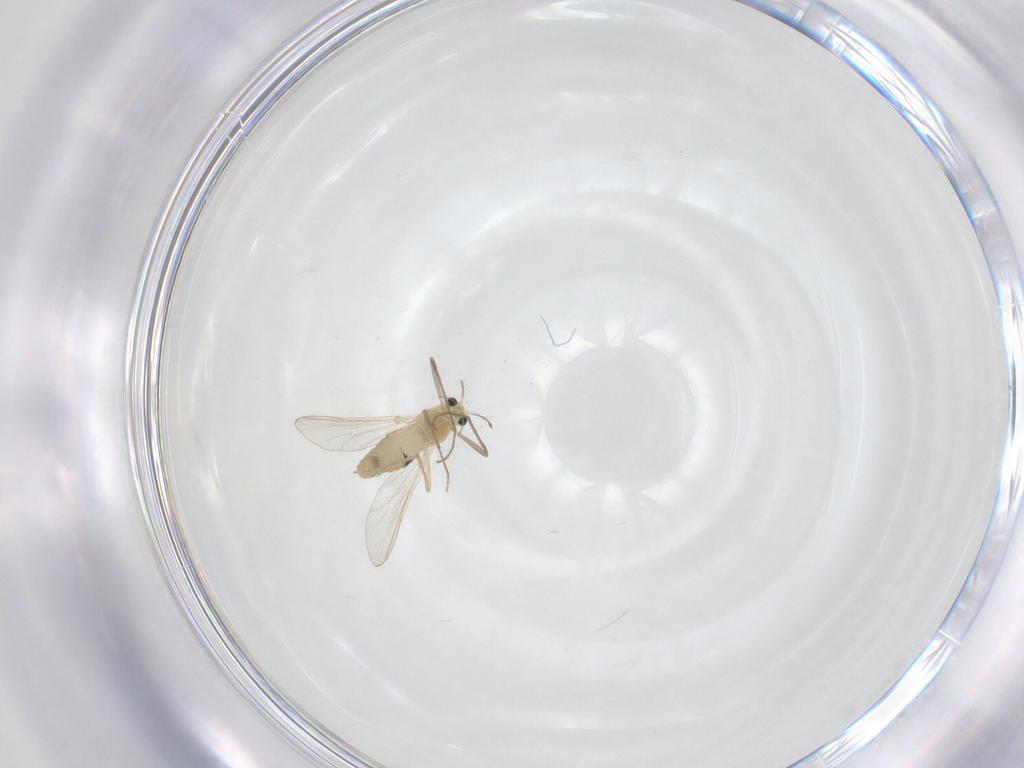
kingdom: Animalia
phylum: Arthropoda
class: Insecta
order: Diptera
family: Chironomidae
